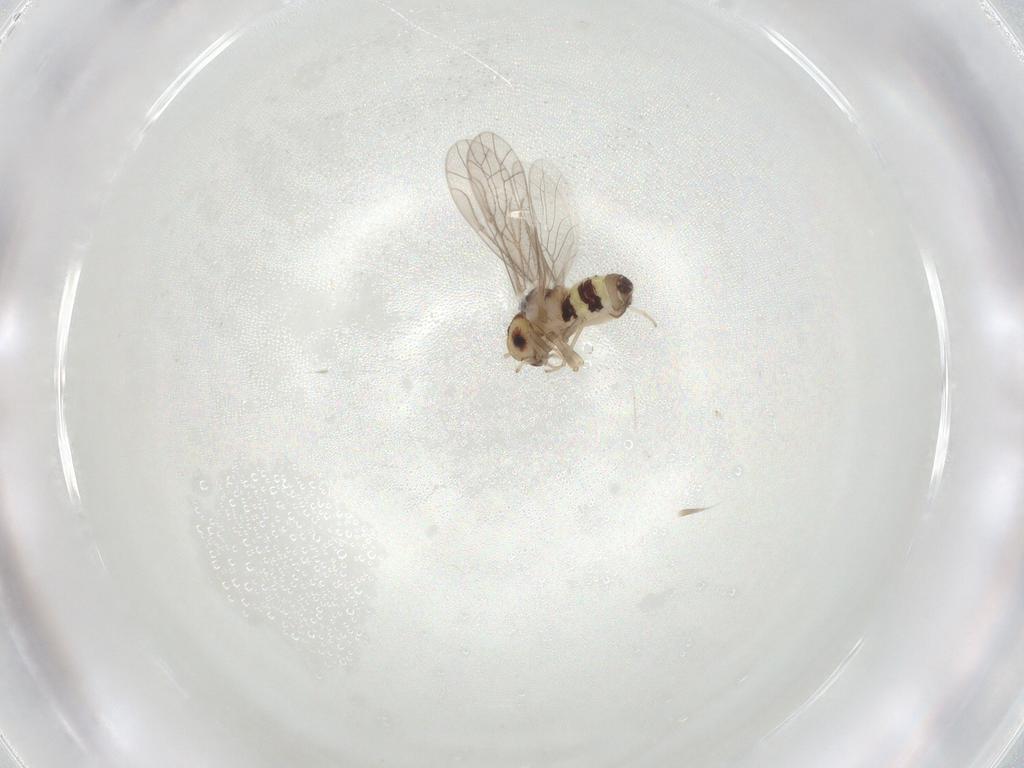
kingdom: Animalia
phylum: Arthropoda
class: Insecta
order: Psocodea
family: Archipsocidae
